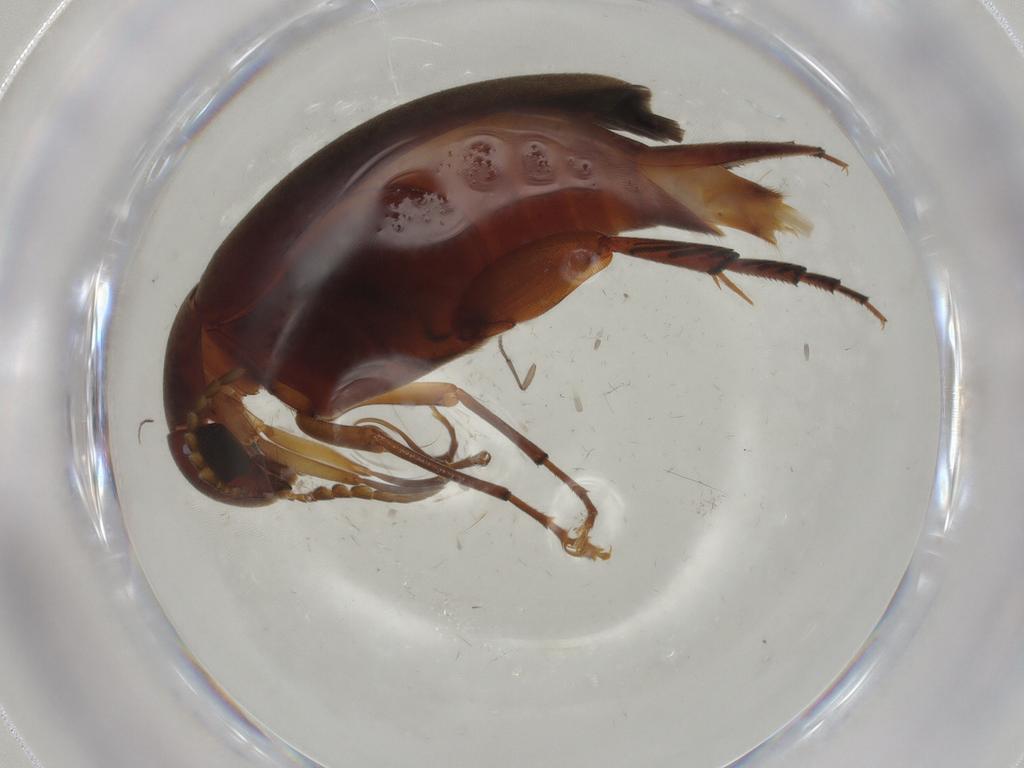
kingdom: Animalia
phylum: Arthropoda
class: Insecta
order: Coleoptera
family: Mordellidae
